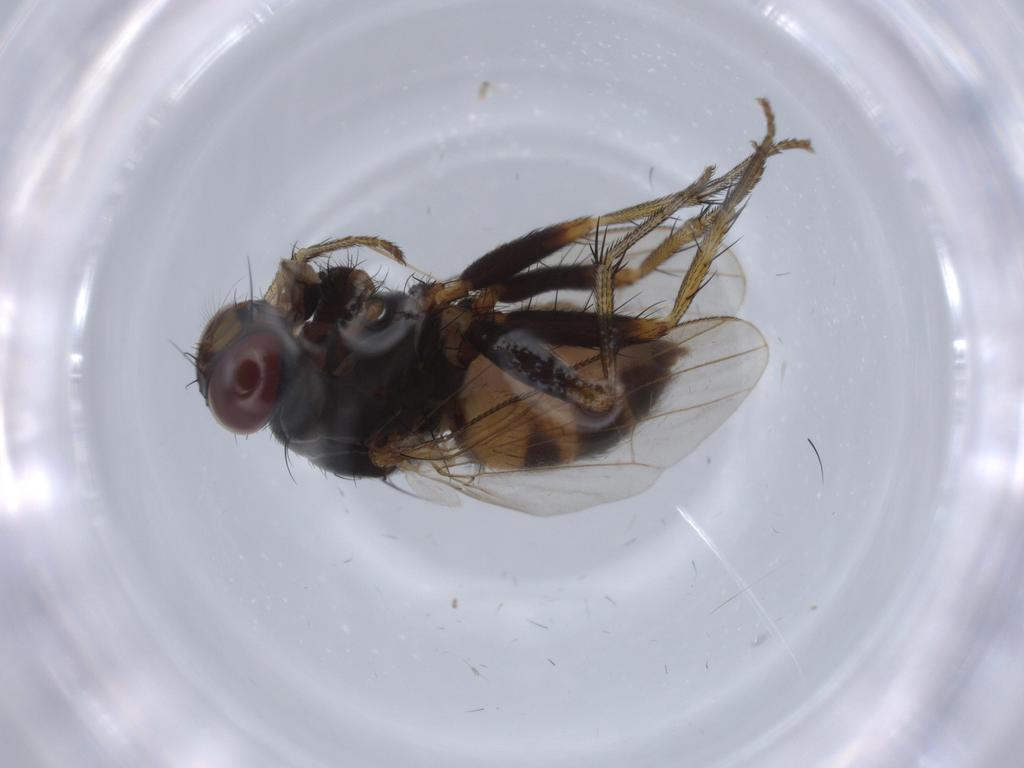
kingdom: Animalia
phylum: Arthropoda
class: Insecta
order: Diptera
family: Muscidae
